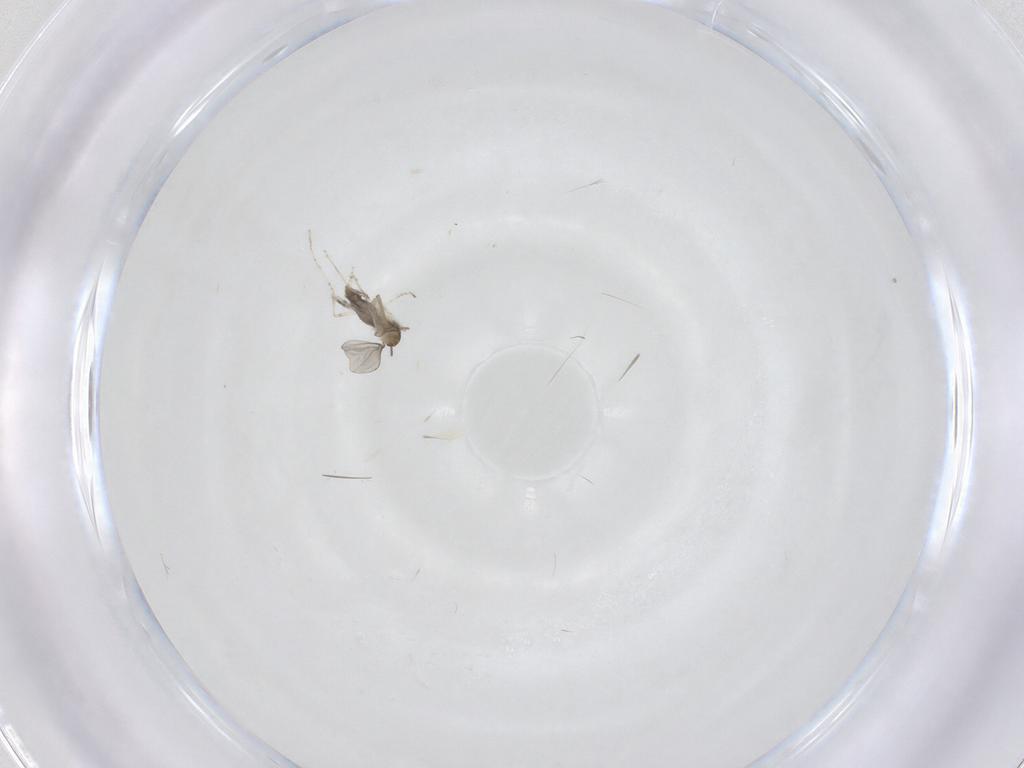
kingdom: Animalia
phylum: Arthropoda
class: Insecta
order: Diptera
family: Cecidomyiidae
